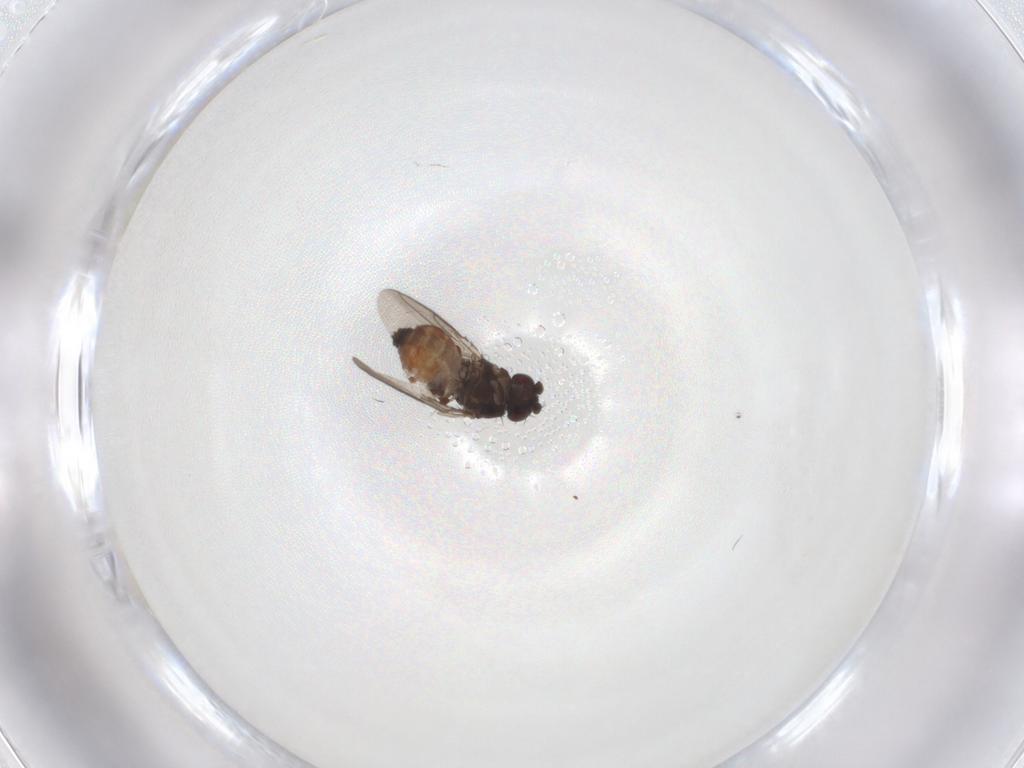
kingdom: Animalia
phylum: Arthropoda
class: Insecta
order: Diptera
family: Sphaeroceridae
